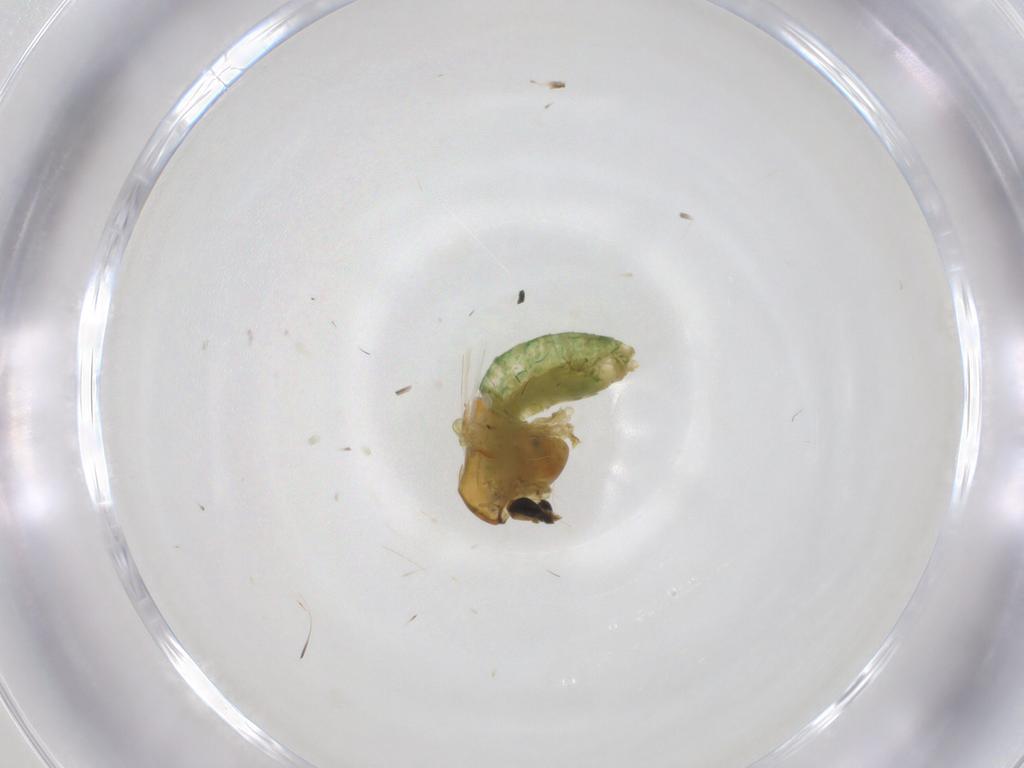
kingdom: Animalia
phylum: Arthropoda
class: Insecta
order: Diptera
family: Chironomidae
